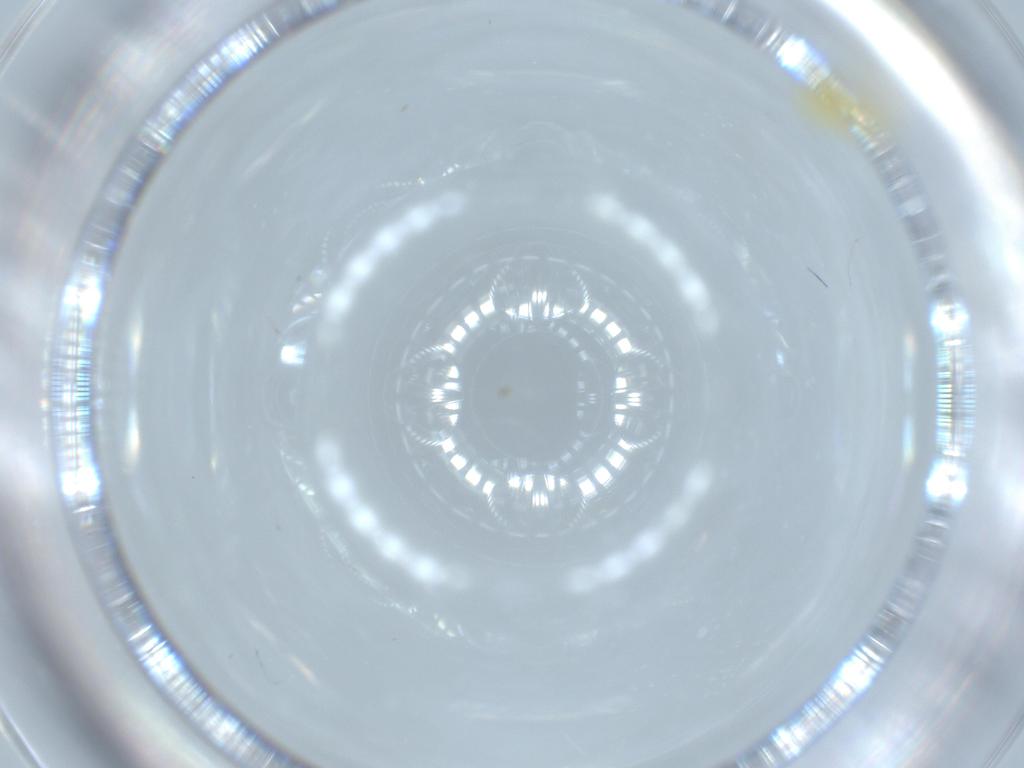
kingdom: Animalia
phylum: Arthropoda
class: Insecta
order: Hemiptera
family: Aleyrodidae
